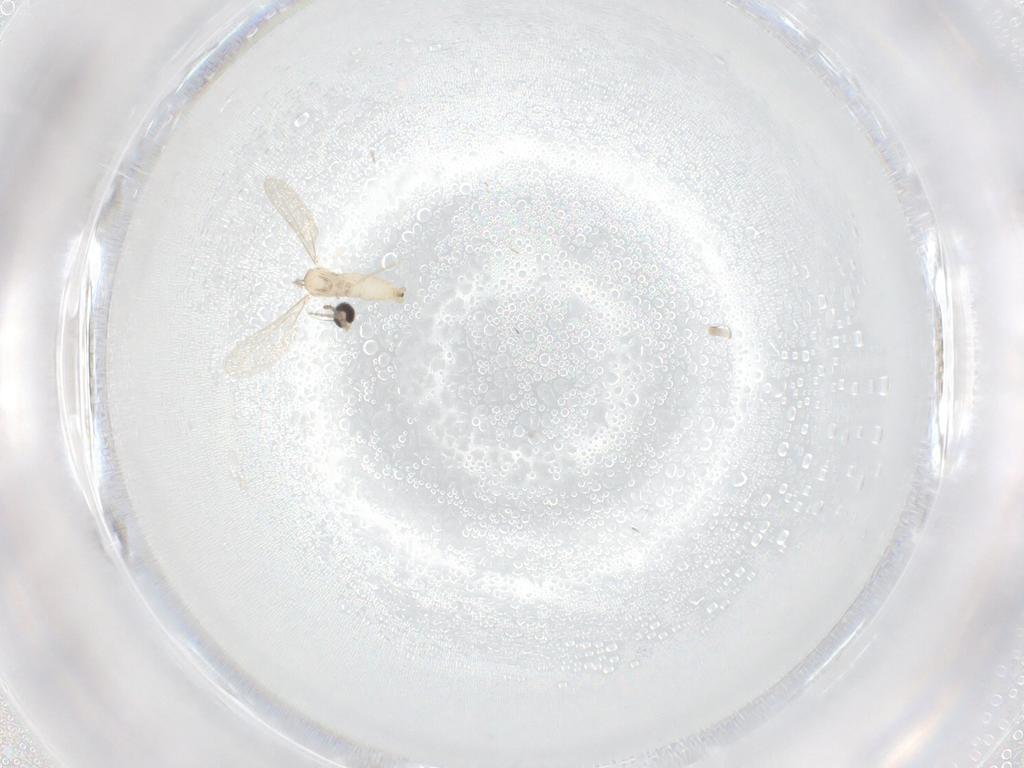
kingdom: Animalia
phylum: Arthropoda
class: Insecta
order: Diptera
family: Phoridae
